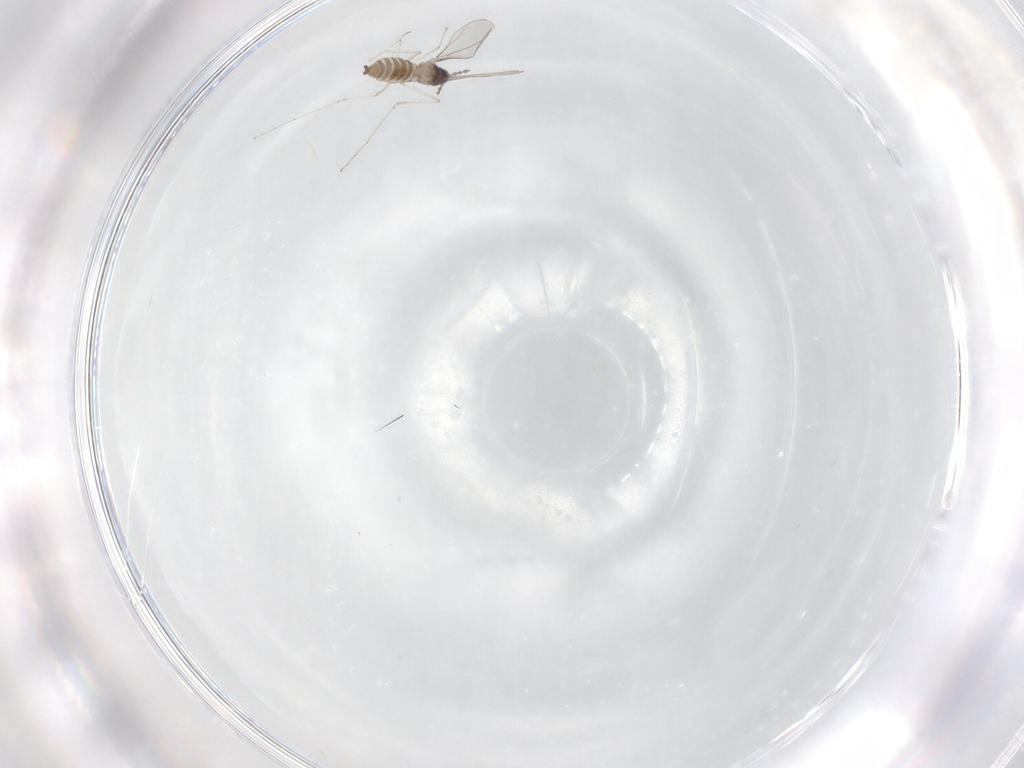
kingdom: Animalia
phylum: Arthropoda
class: Insecta
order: Diptera
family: Cecidomyiidae
